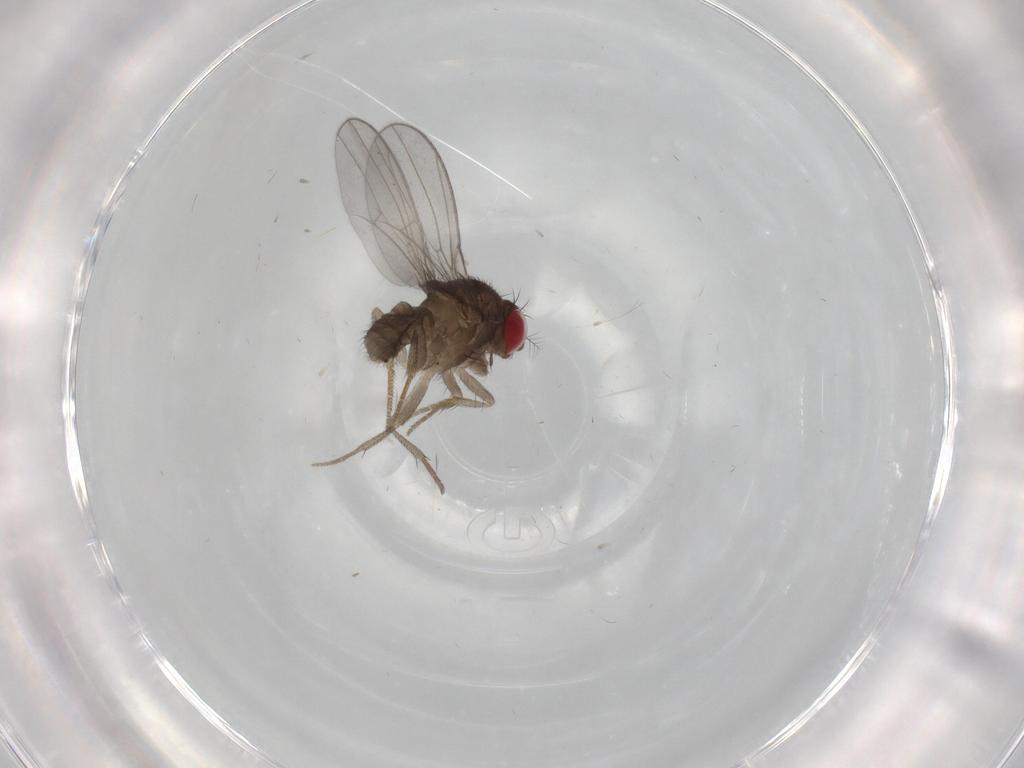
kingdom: Animalia
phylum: Arthropoda
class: Insecta
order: Diptera
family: Drosophilidae
